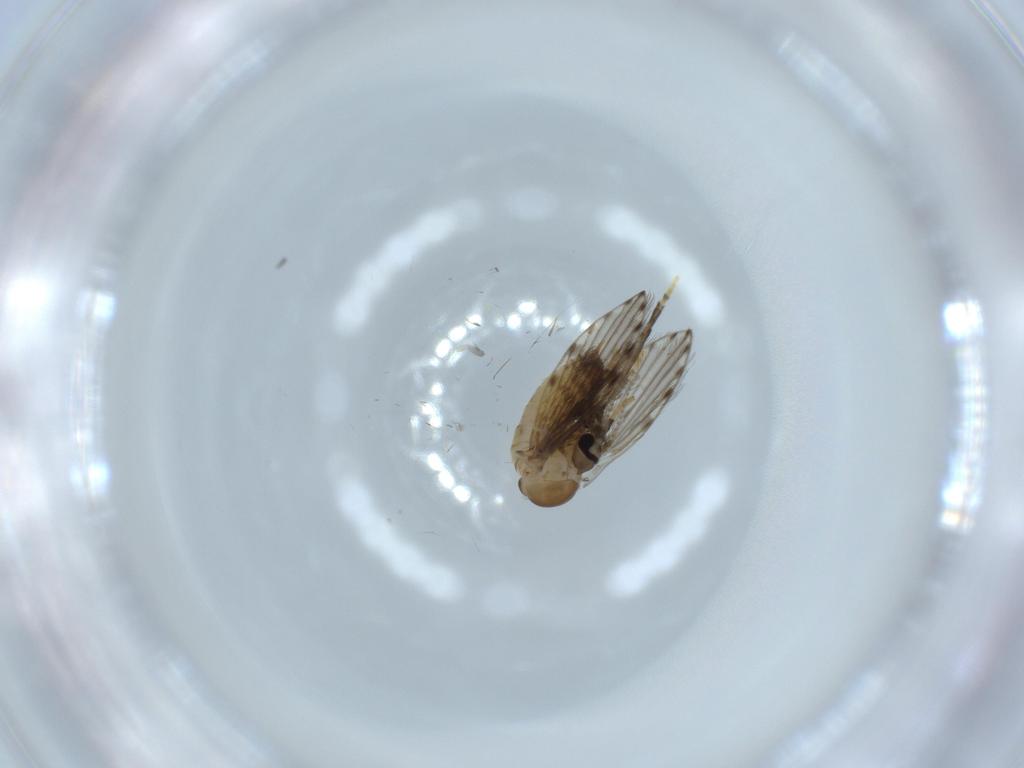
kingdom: Animalia
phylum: Arthropoda
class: Insecta
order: Diptera
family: Psychodidae
